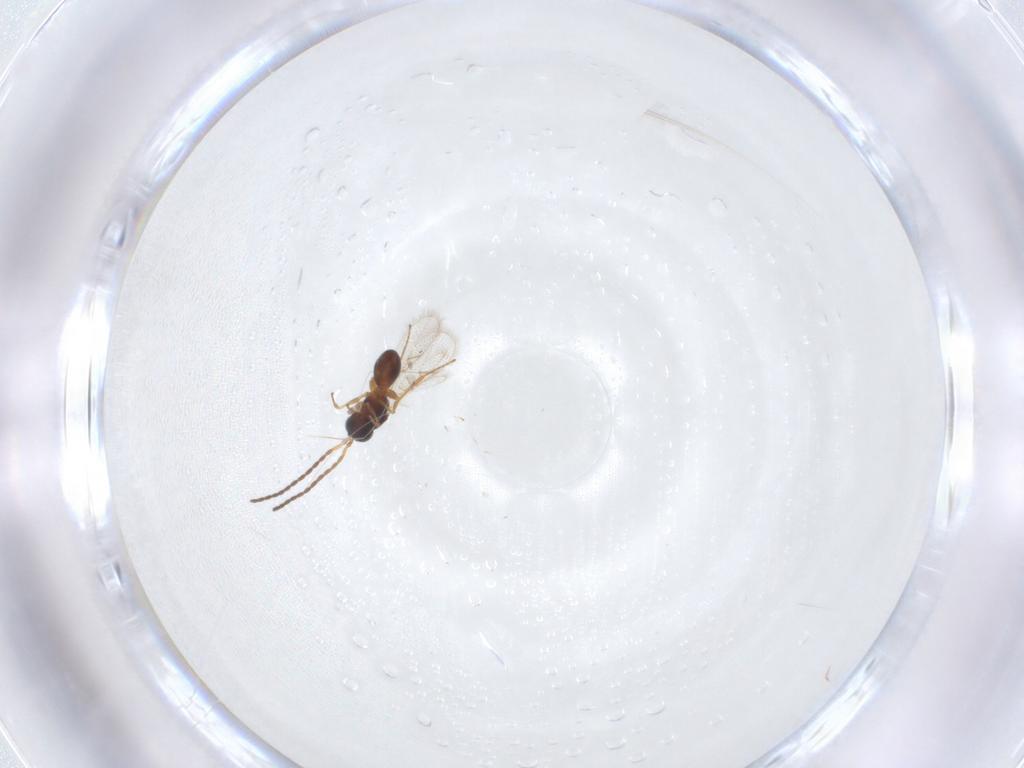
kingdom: Animalia
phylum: Arthropoda
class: Insecta
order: Hymenoptera
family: Figitidae
